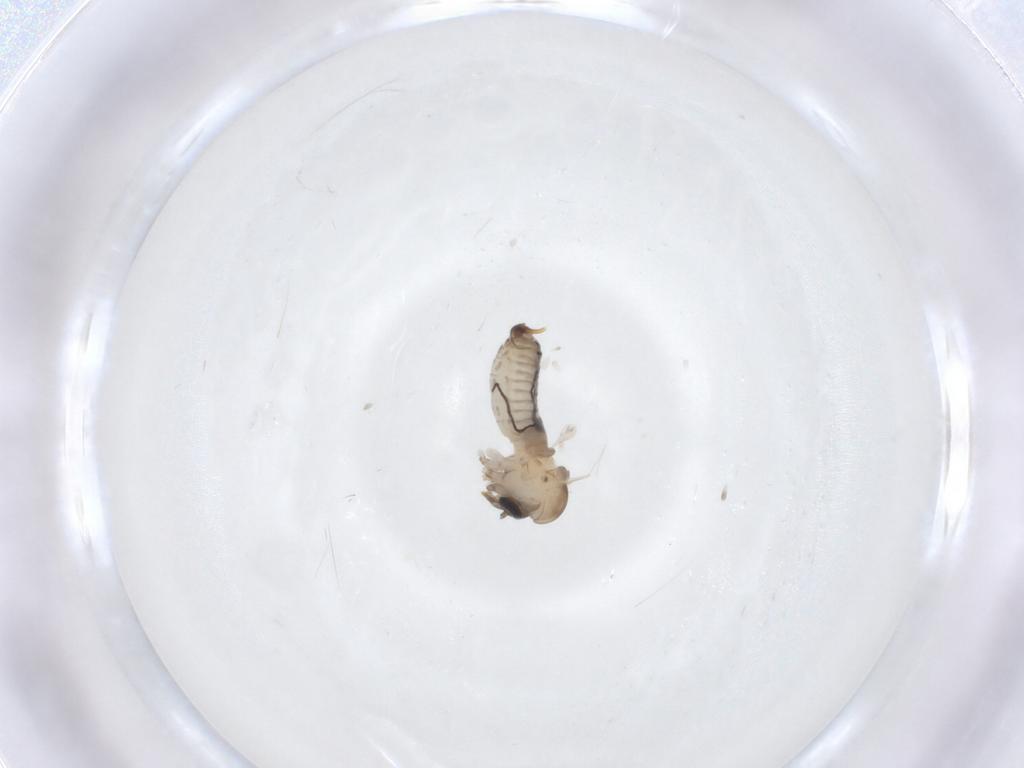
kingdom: Animalia
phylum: Arthropoda
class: Insecta
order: Diptera
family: Psychodidae
